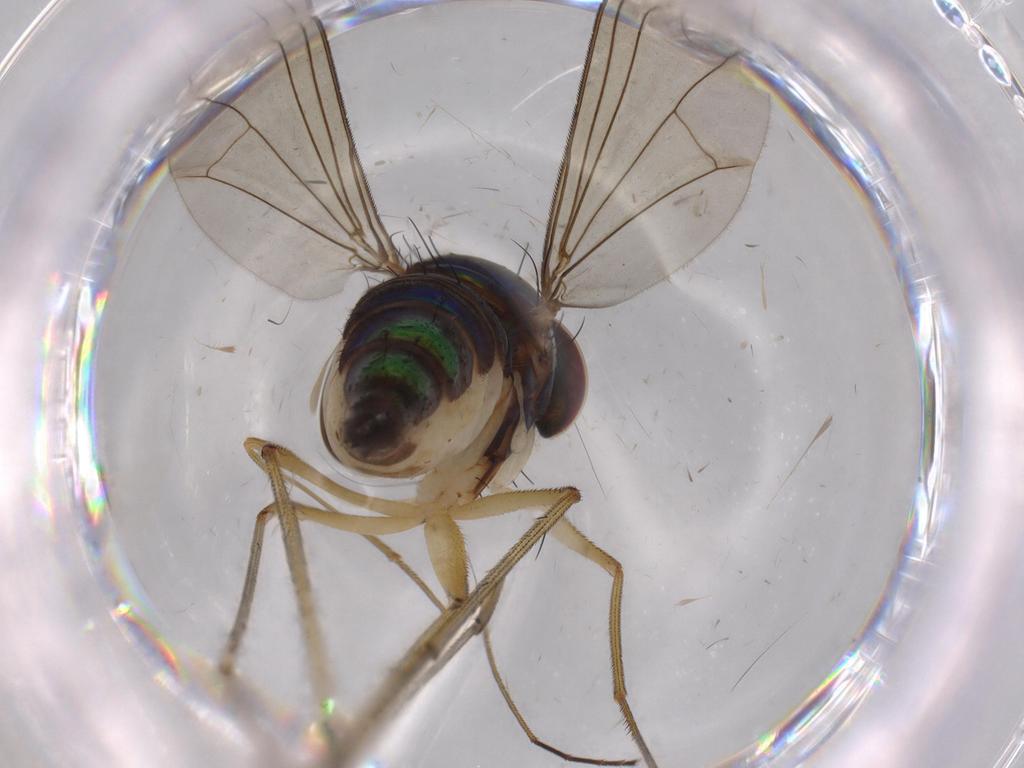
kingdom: Animalia
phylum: Arthropoda
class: Insecta
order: Diptera
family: Dolichopodidae
